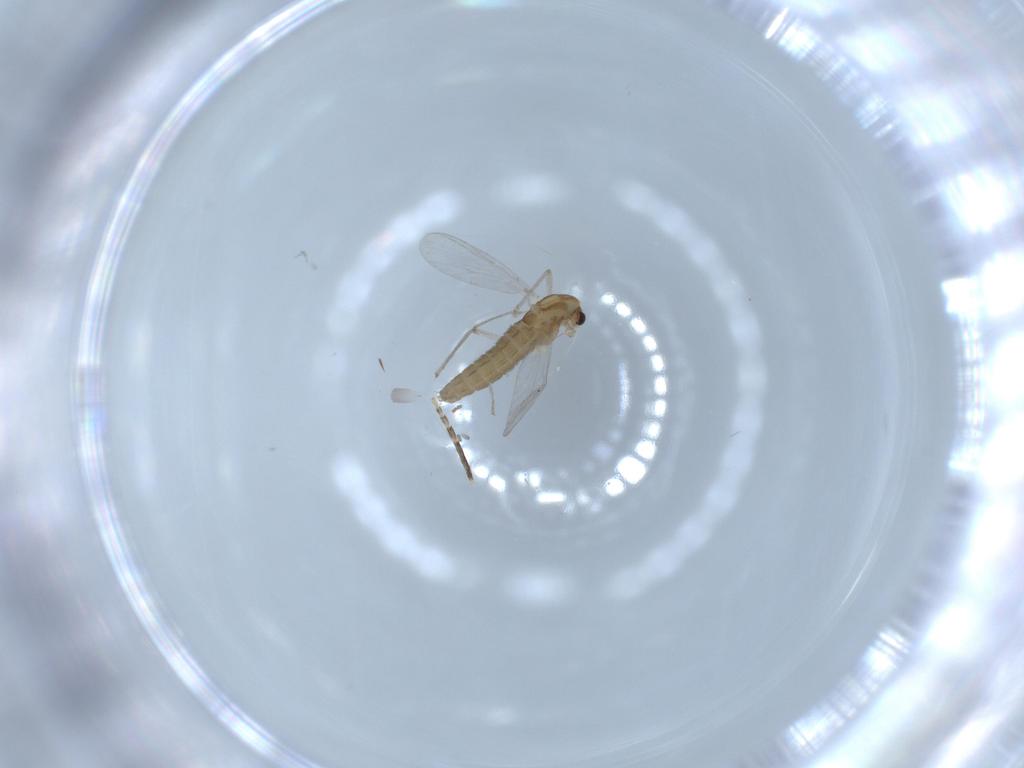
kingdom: Animalia
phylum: Arthropoda
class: Insecta
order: Diptera
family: Chironomidae
